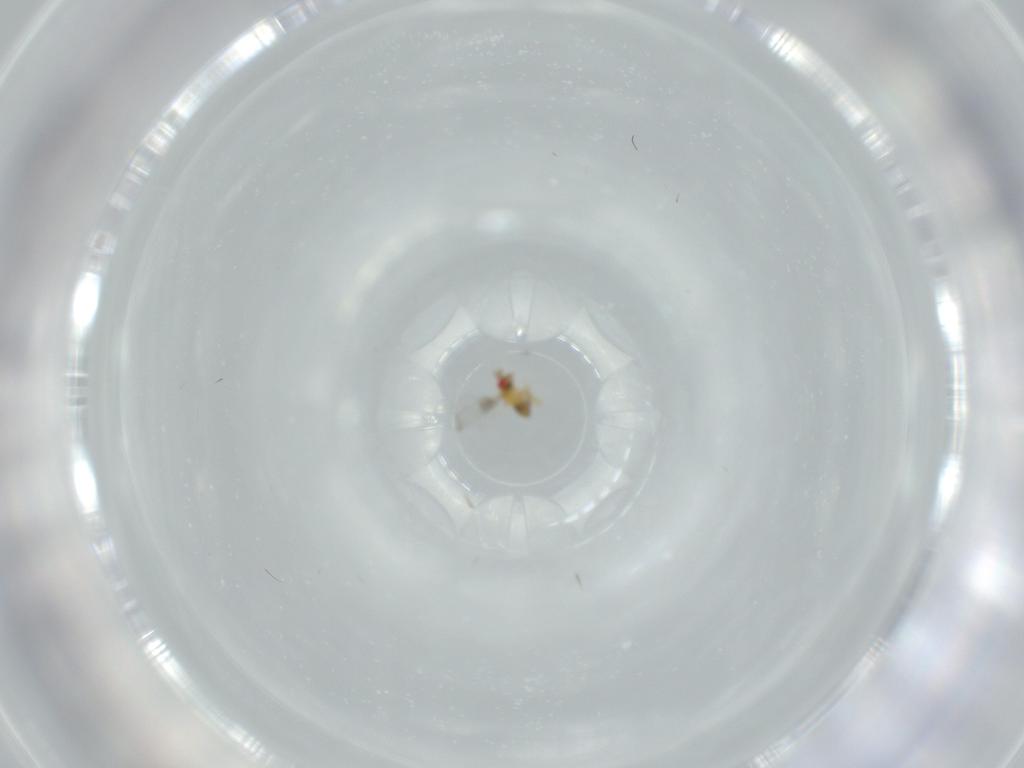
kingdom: Animalia
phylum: Arthropoda
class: Insecta
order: Hymenoptera
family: Trichogrammatidae
